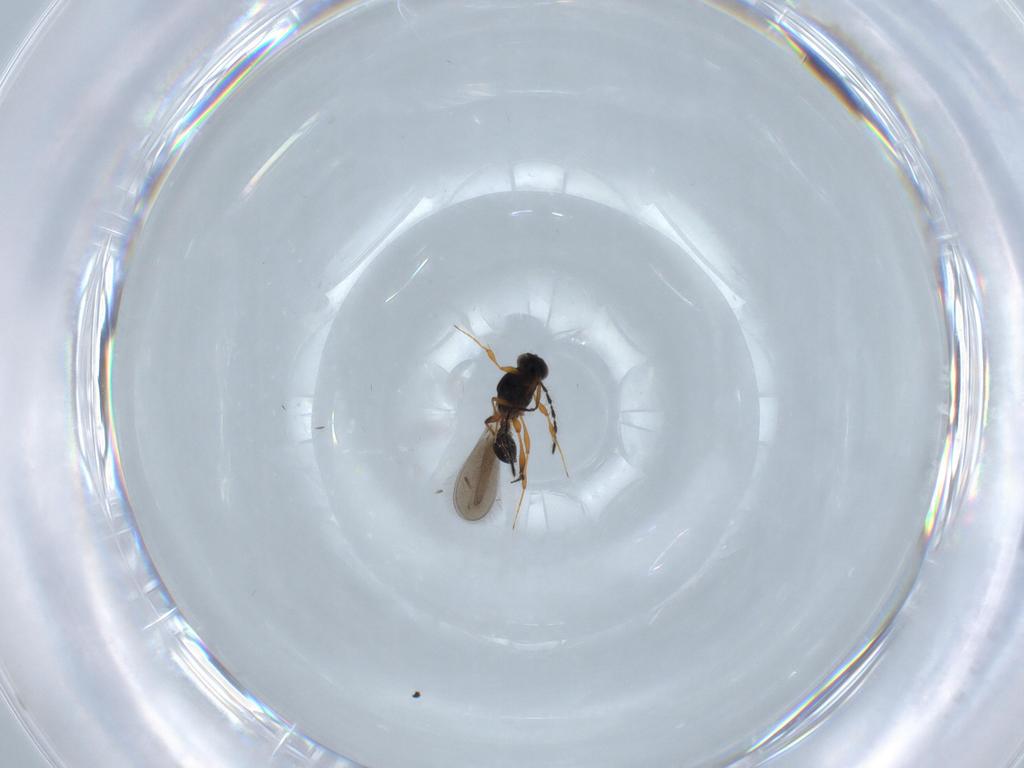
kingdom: Animalia
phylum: Arthropoda
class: Insecta
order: Hymenoptera
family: Platygastridae
